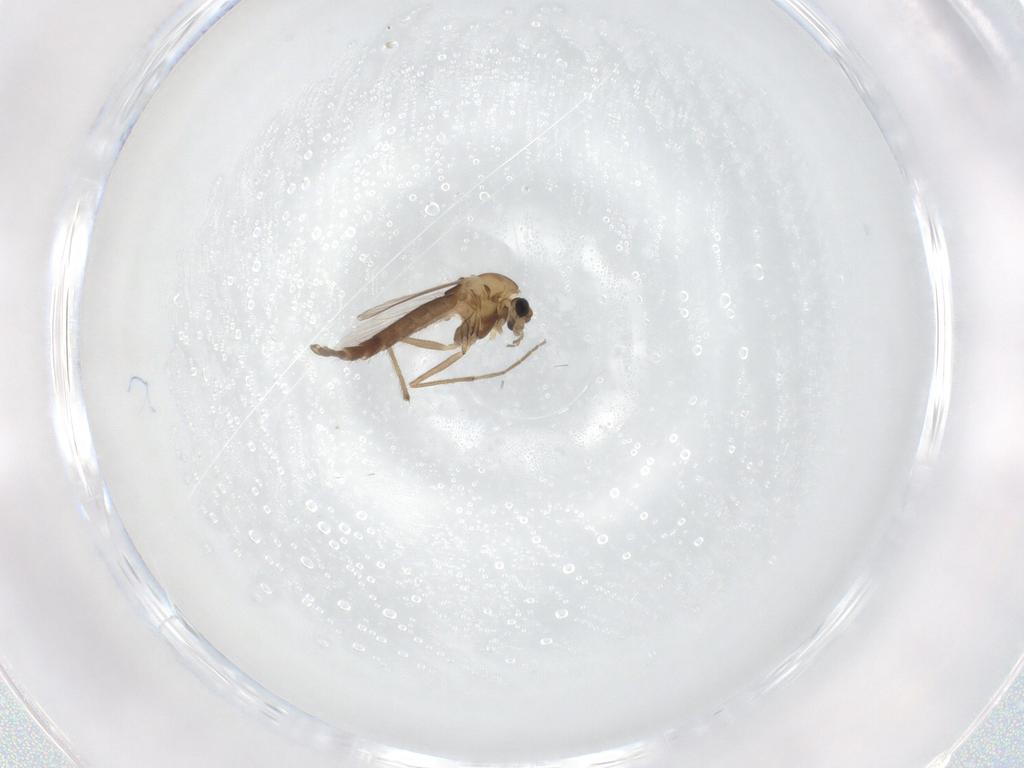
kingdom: Animalia
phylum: Arthropoda
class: Insecta
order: Diptera
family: Chironomidae
